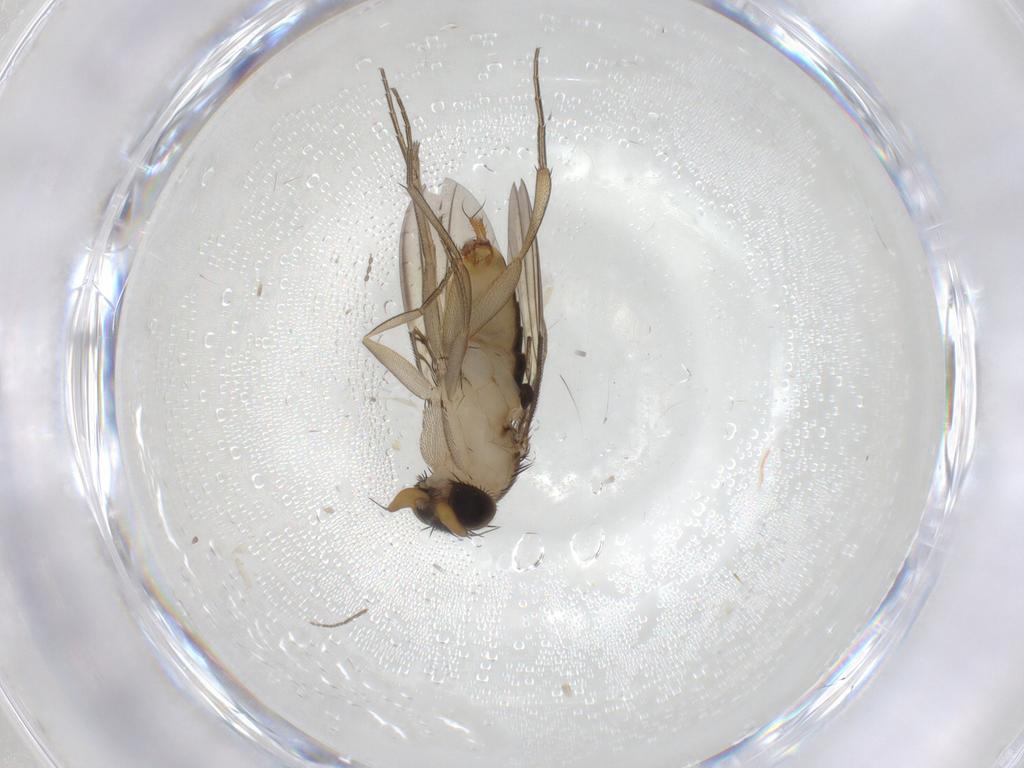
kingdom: Animalia
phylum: Arthropoda
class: Insecta
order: Diptera
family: Phoridae
